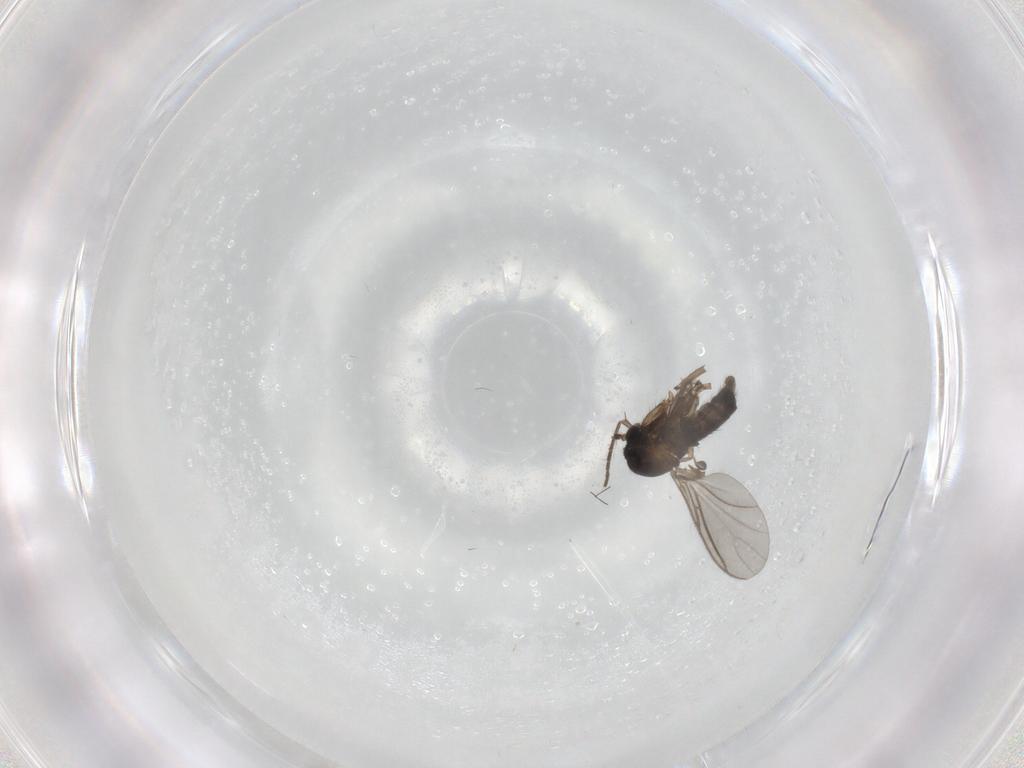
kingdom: Animalia
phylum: Arthropoda
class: Insecta
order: Diptera
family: Sciaridae
